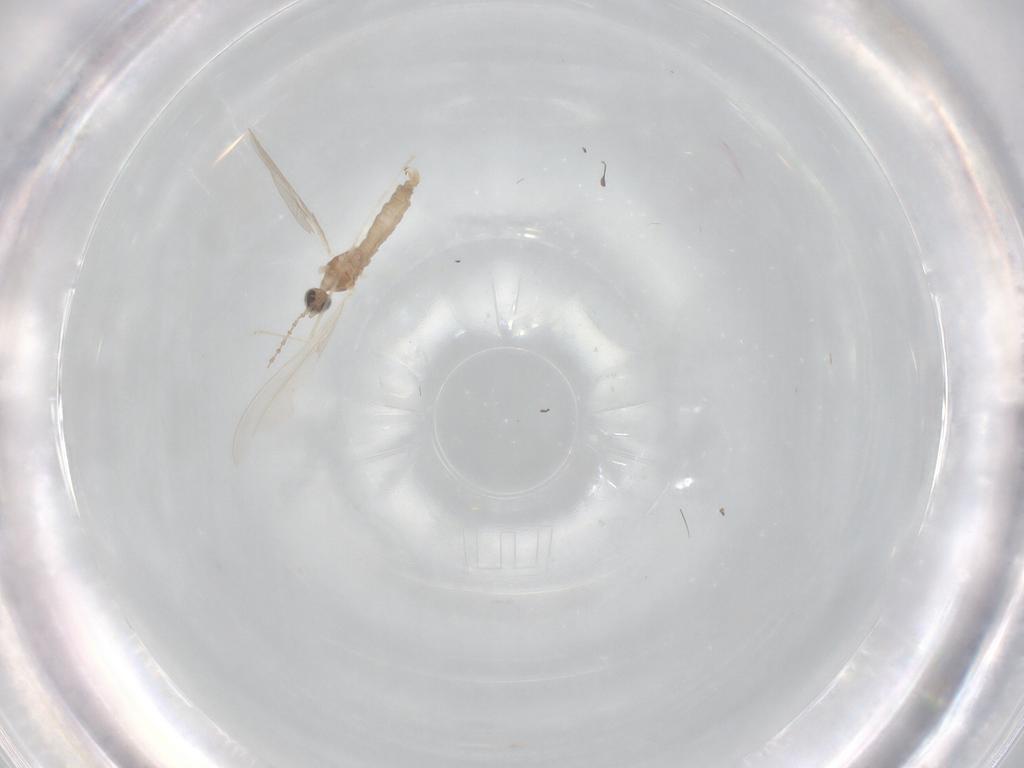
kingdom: Animalia
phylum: Arthropoda
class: Insecta
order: Diptera
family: Cecidomyiidae
